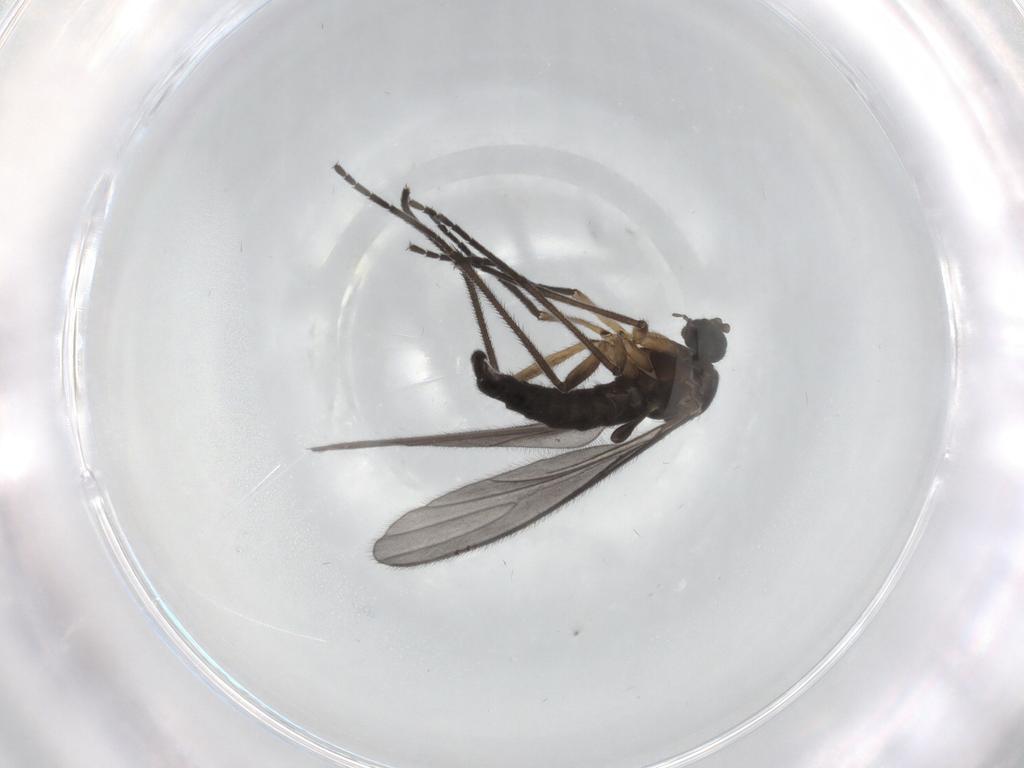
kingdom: Animalia
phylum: Arthropoda
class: Insecta
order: Diptera
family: Sciaridae
